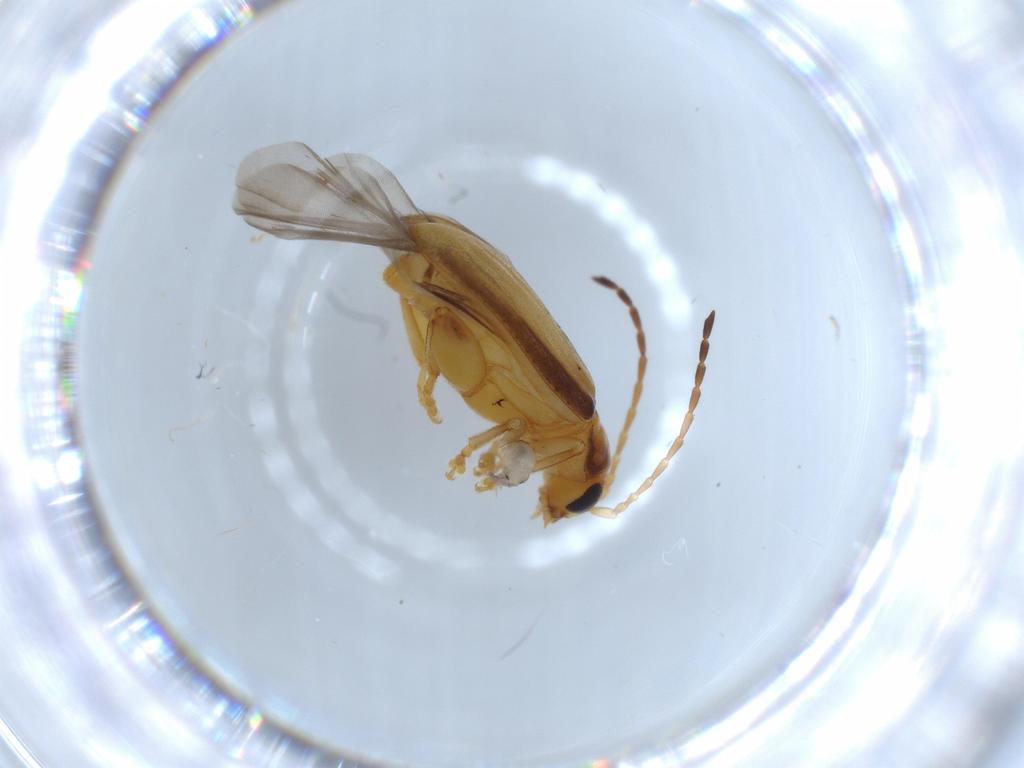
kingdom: Animalia
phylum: Arthropoda
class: Insecta
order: Coleoptera
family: Chrysomelidae
